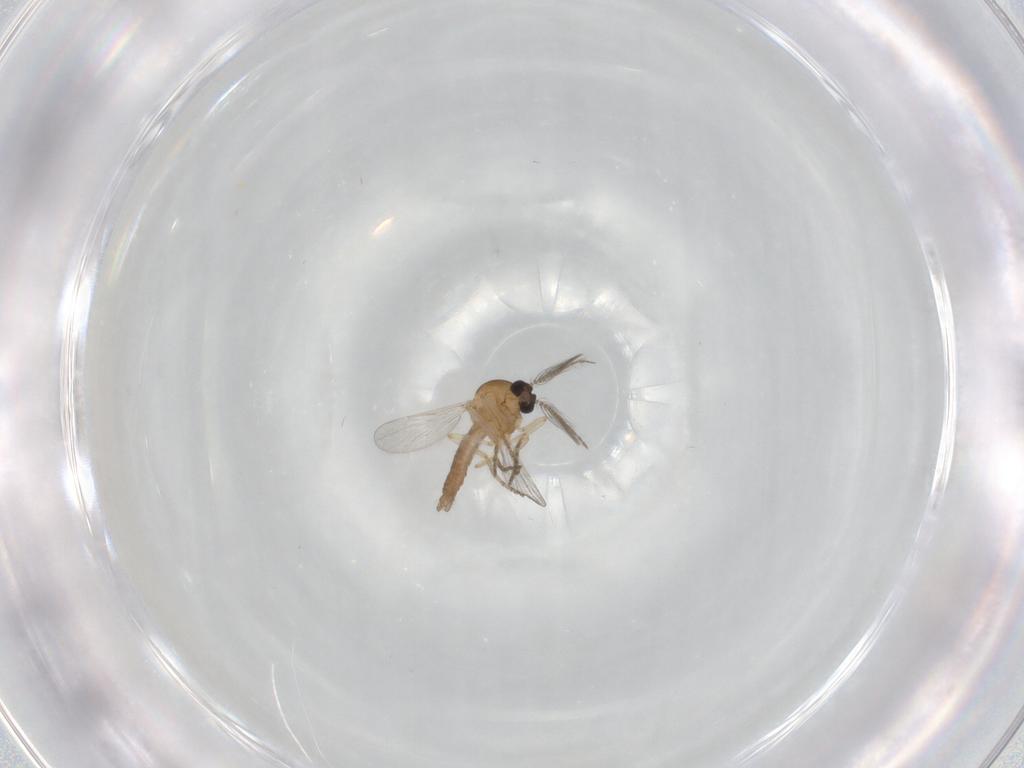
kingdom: Animalia
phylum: Arthropoda
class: Insecta
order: Diptera
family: Ceratopogonidae
